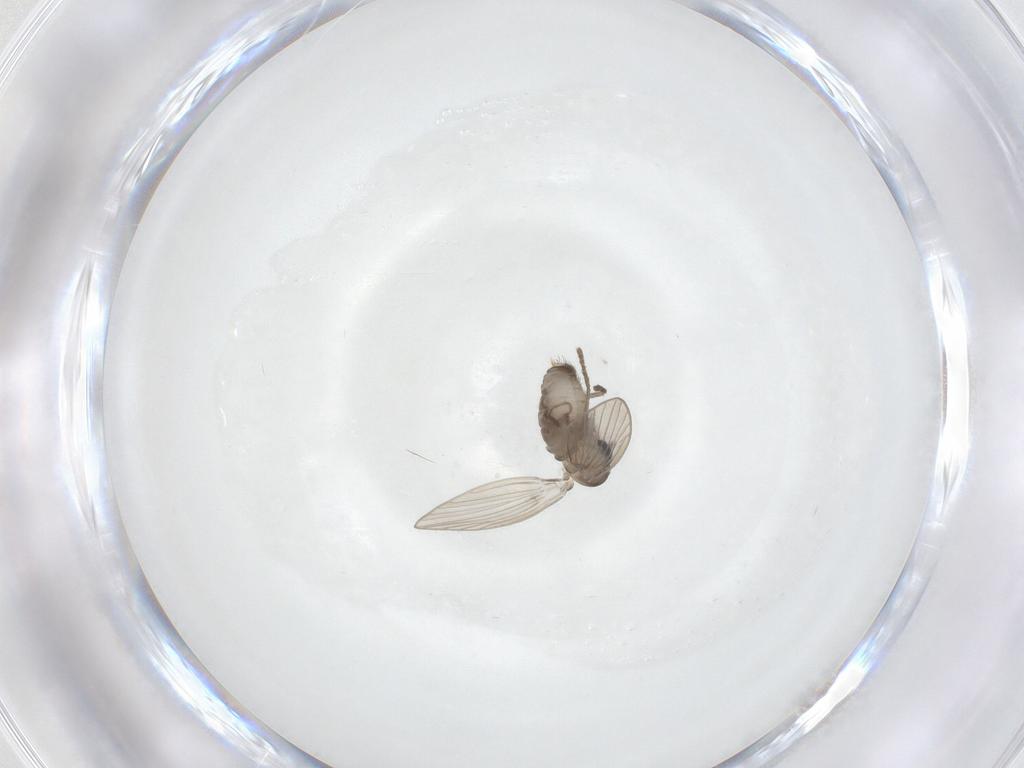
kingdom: Animalia
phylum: Arthropoda
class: Insecta
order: Diptera
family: Psychodidae
